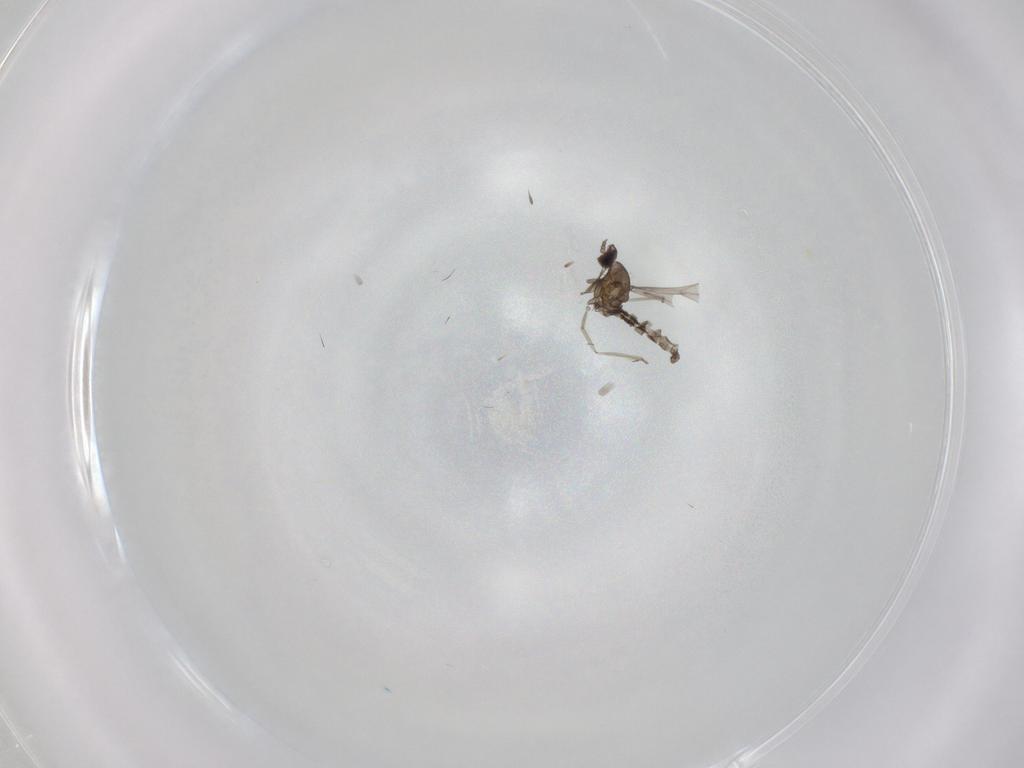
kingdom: Animalia
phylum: Arthropoda
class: Insecta
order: Diptera
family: Cecidomyiidae
